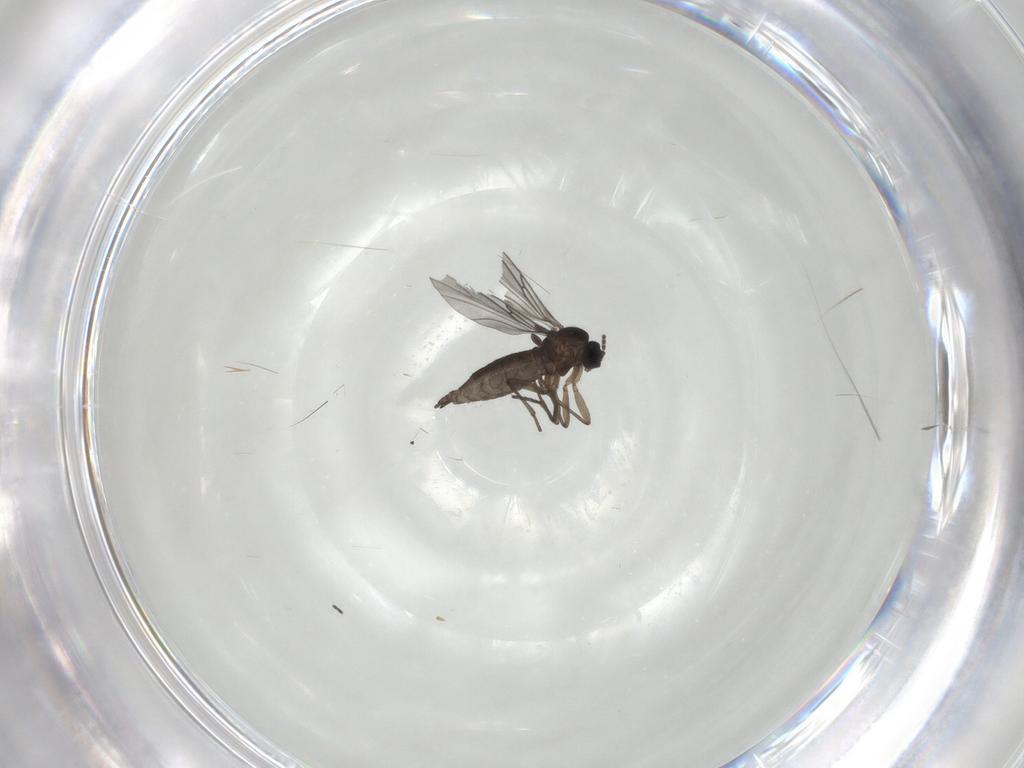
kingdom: Animalia
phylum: Arthropoda
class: Insecta
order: Diptera
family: Sciaridae
